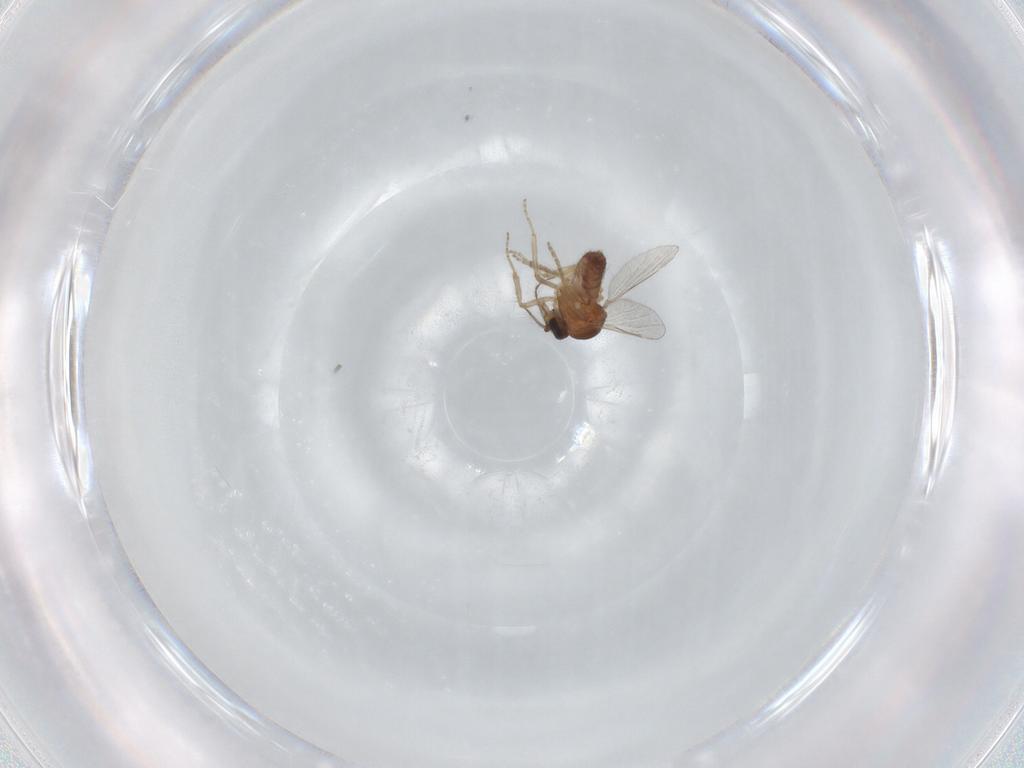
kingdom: Animalia
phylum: Arthropoda
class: Insecta
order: Diptera
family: Ceratopogonidae
